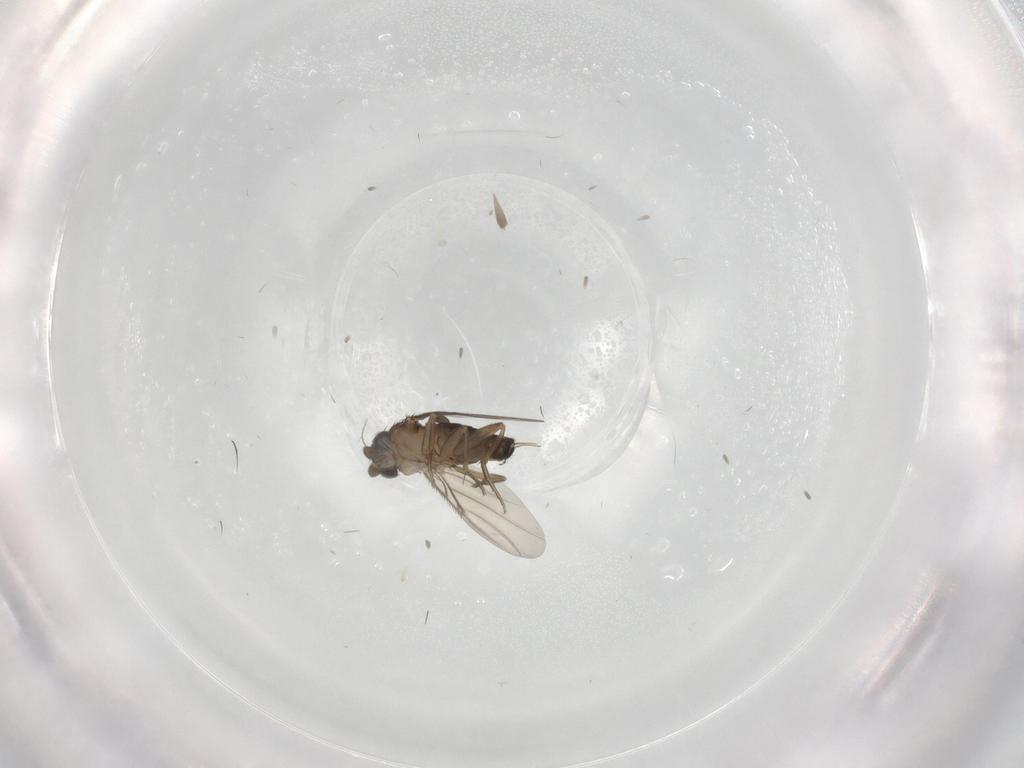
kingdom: Animalia
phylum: Arthropoda
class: Insecta
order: Diptera
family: Phoridae
